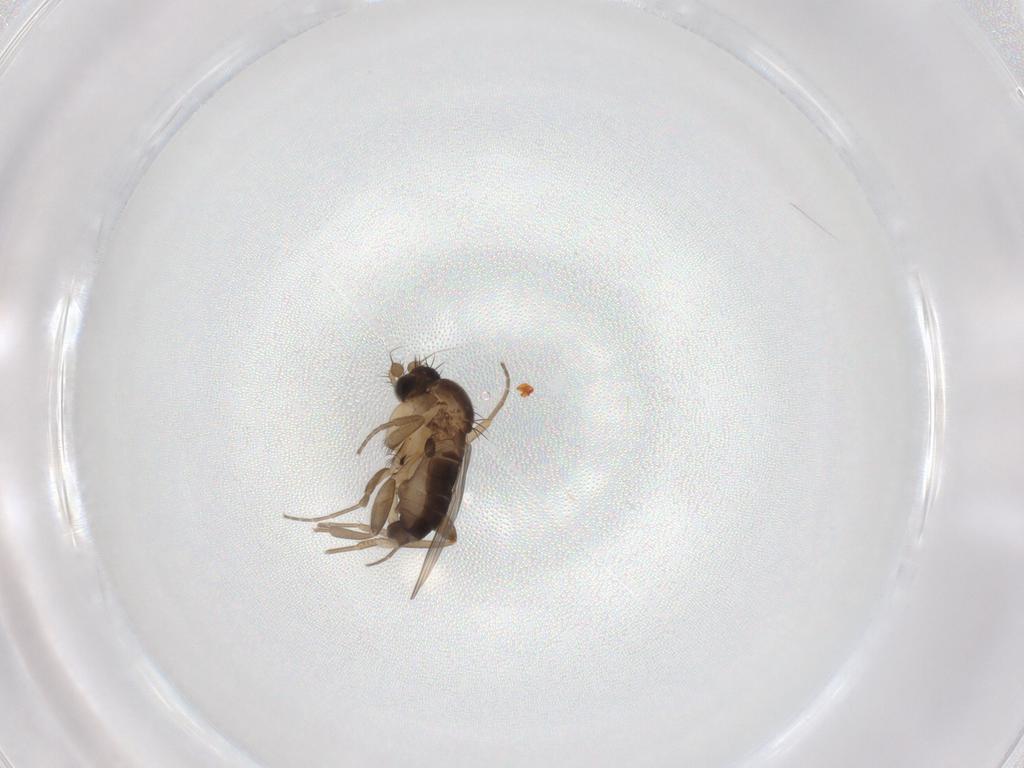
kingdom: Animalia
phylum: Arthropoda
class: Insecta
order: Diptera
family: Phoridae
